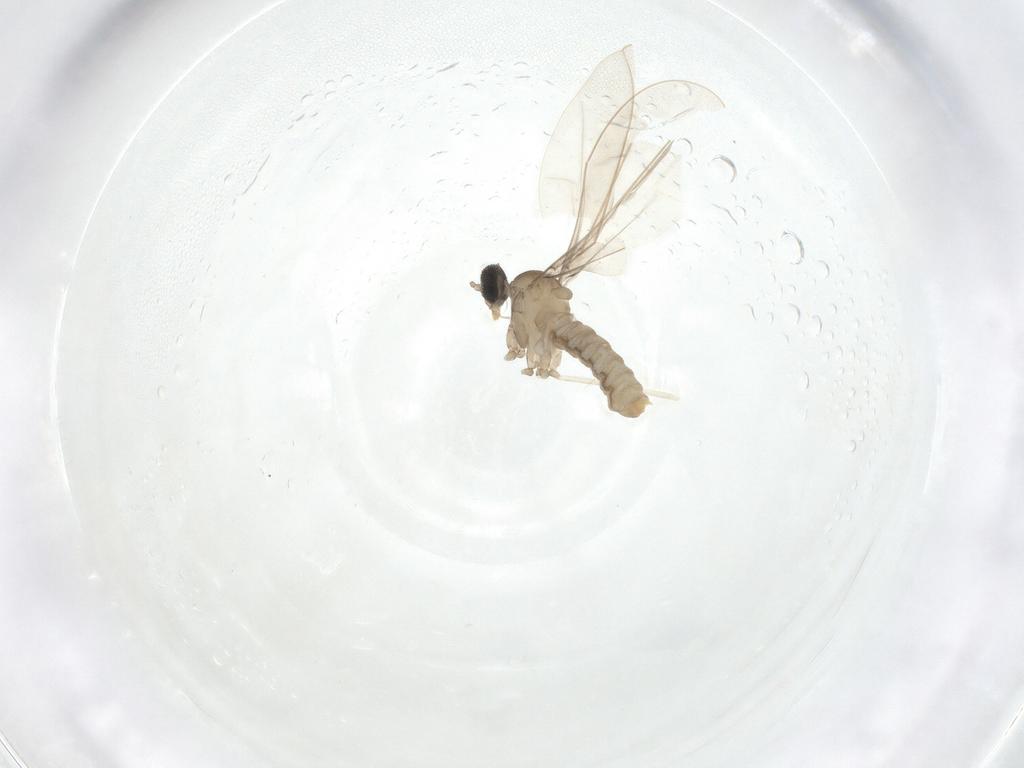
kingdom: Animalia
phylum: Arthropoda
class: Insecta
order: Diptera
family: Cecidomyiidae
